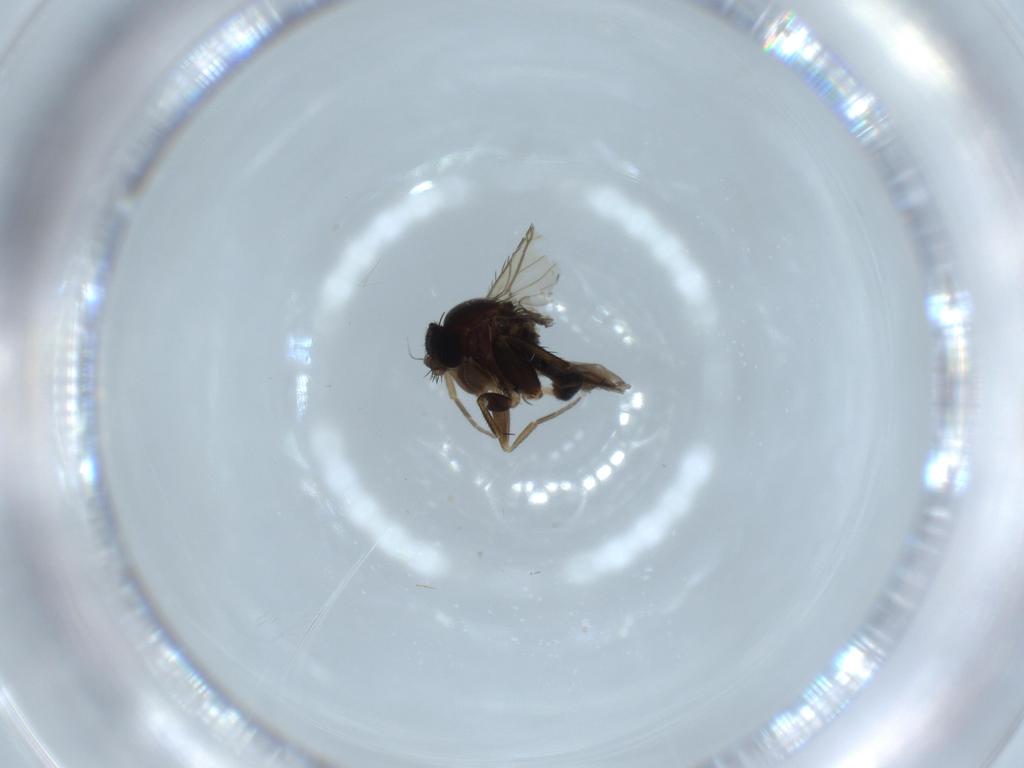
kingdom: Animalia
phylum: Arthropoda
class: Insecta
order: Diptera
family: Phoridae
